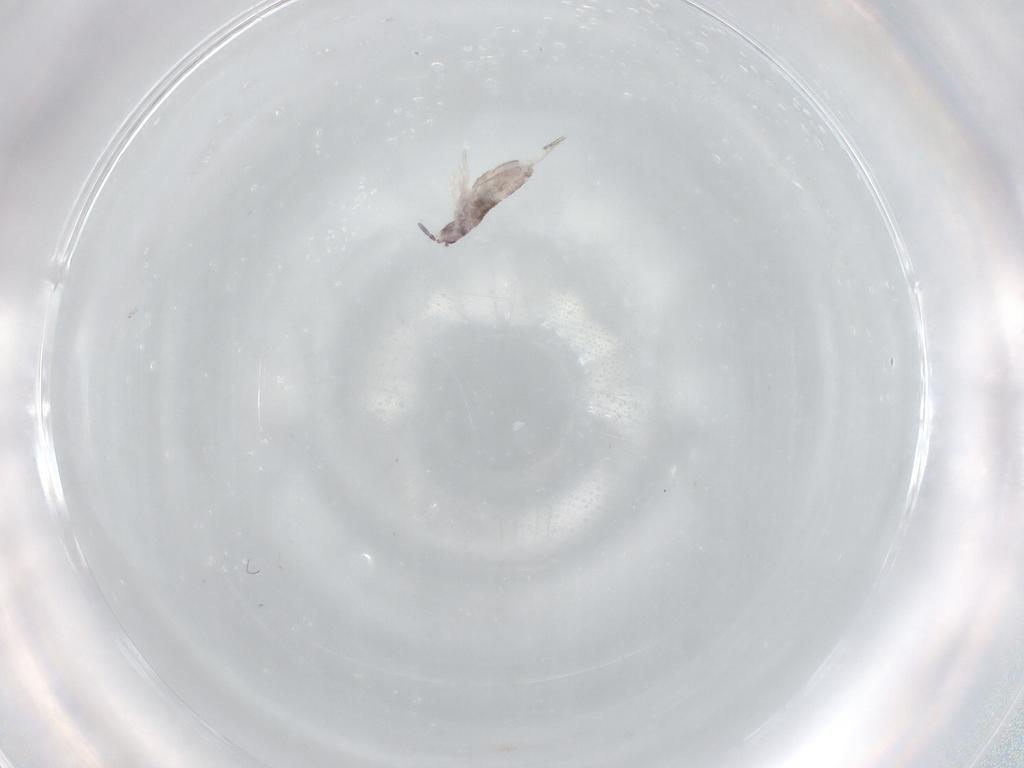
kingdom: Animalia
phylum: Arthropoda
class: Collembola
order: Entomobryomorpha
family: Entomobryidae
